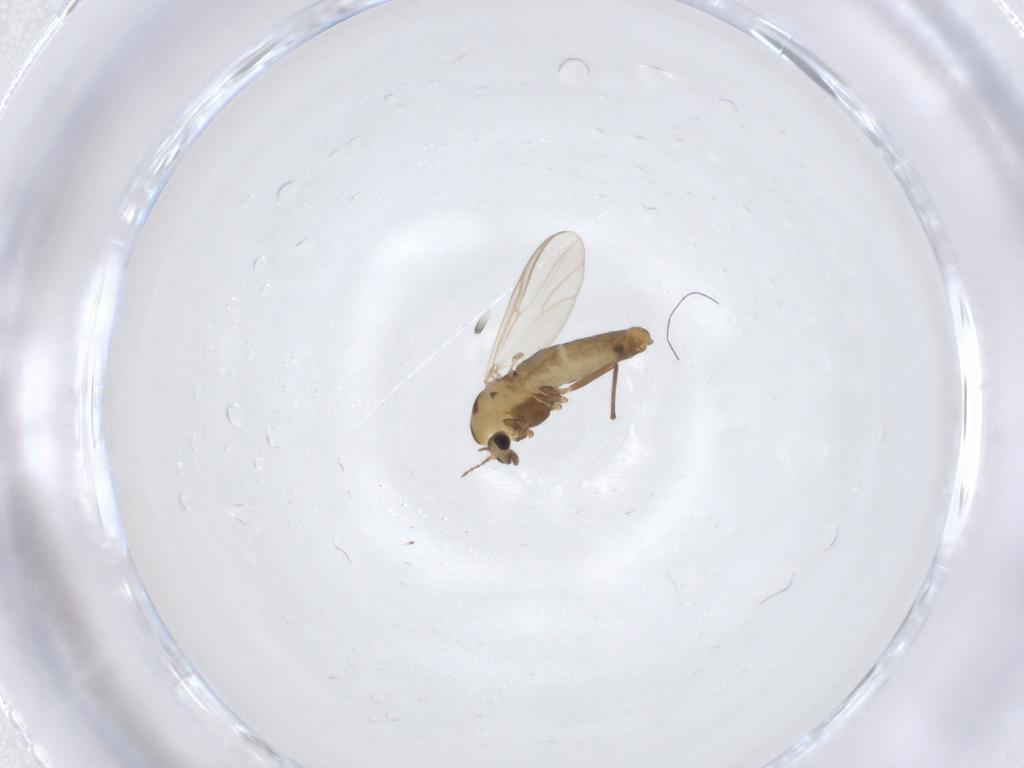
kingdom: Animalia
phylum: Arthropoda
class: Insecta
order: Diptera
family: Chironomidae
